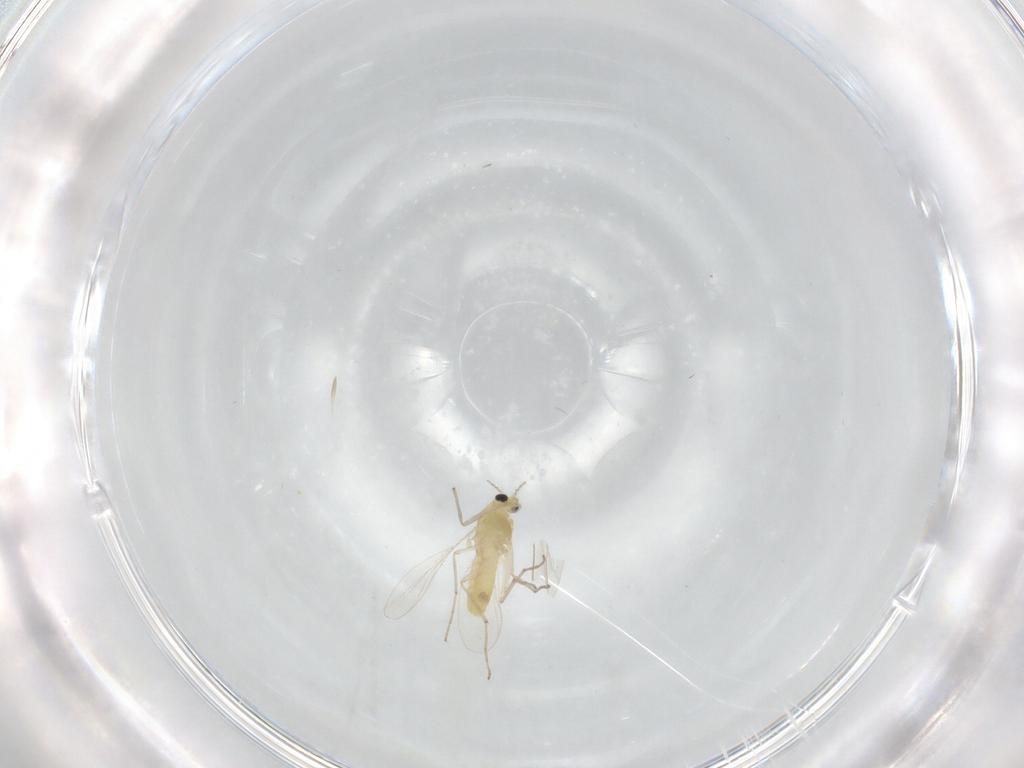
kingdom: Animalia
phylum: Arthropoda
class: Insecta
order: Diptera
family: Chironomidae
